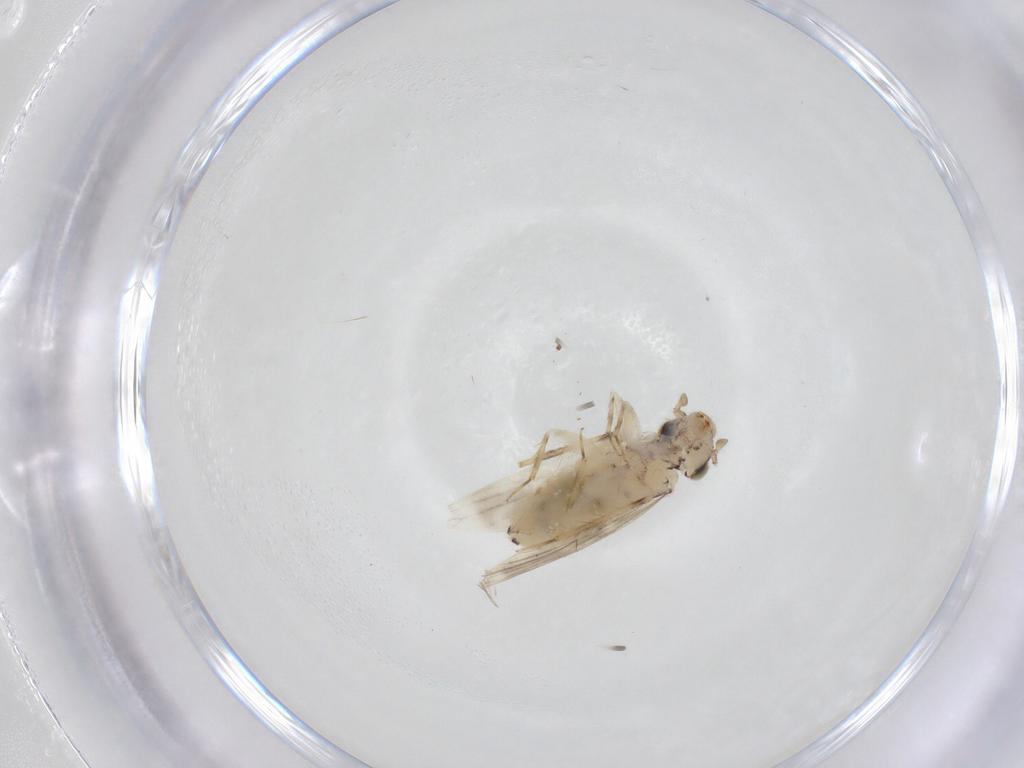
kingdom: Animalia
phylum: Arthropoda
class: Insecta
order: Psocodea
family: Lepidopsocidae
